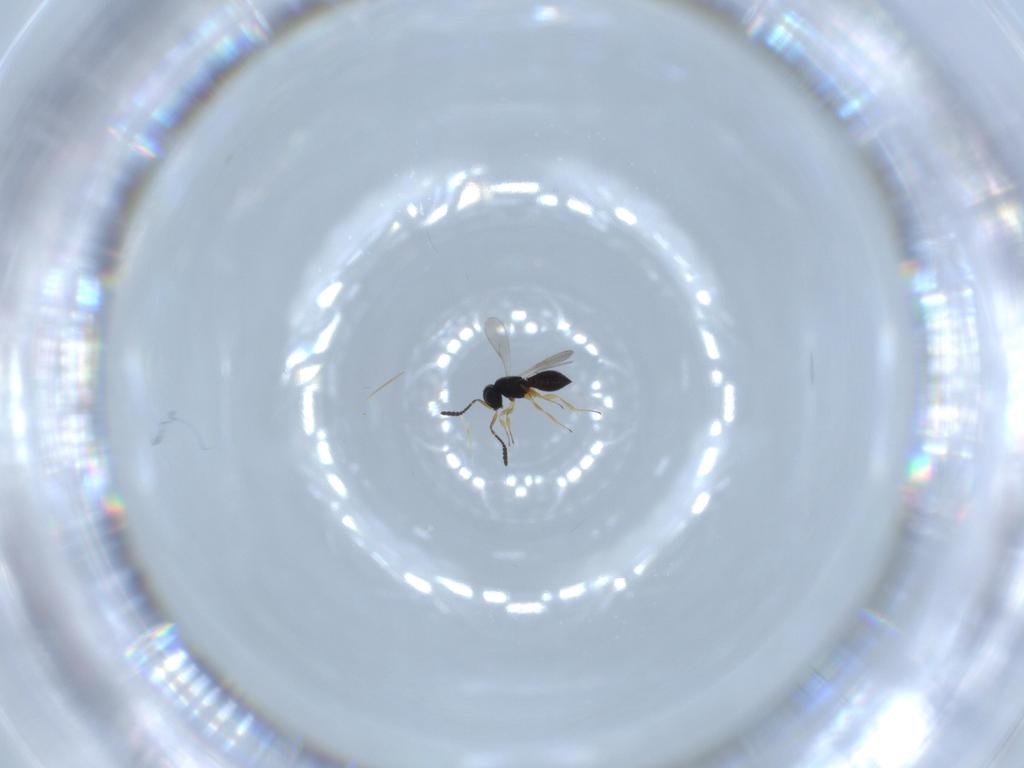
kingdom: Animalia
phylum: Arthropoda
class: Insecta
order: Hymenoptera
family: Scelionidae
